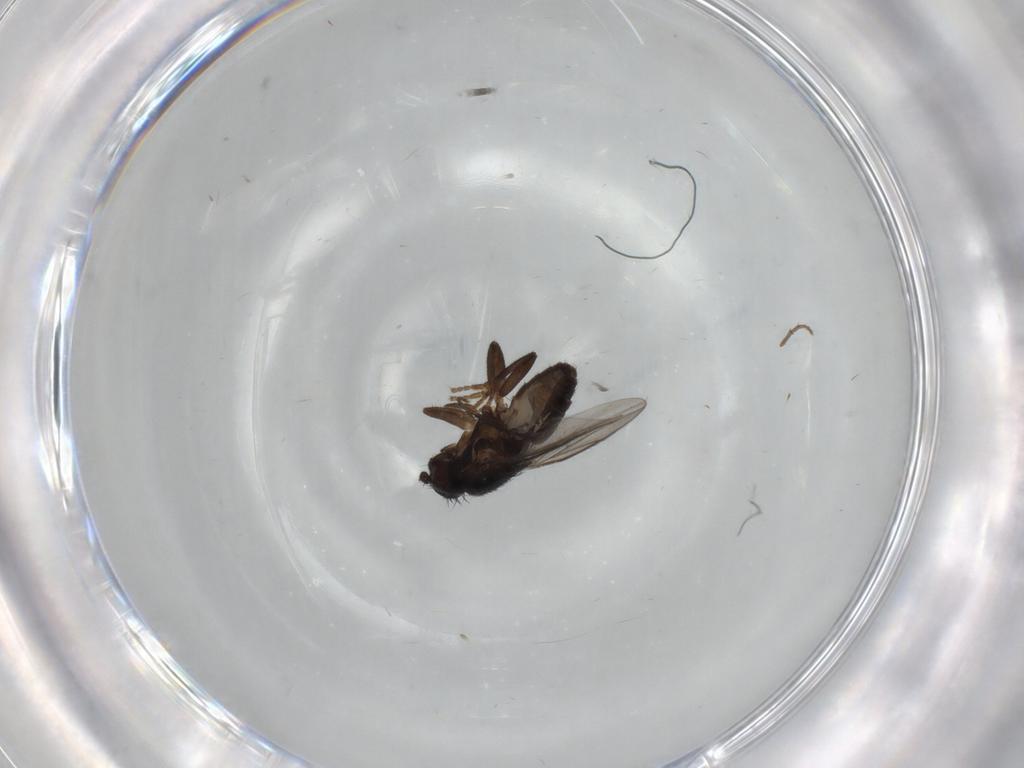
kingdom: Animalia
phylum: Arthropoda
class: Insecta
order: Diptera
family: Sphaeroceridae
